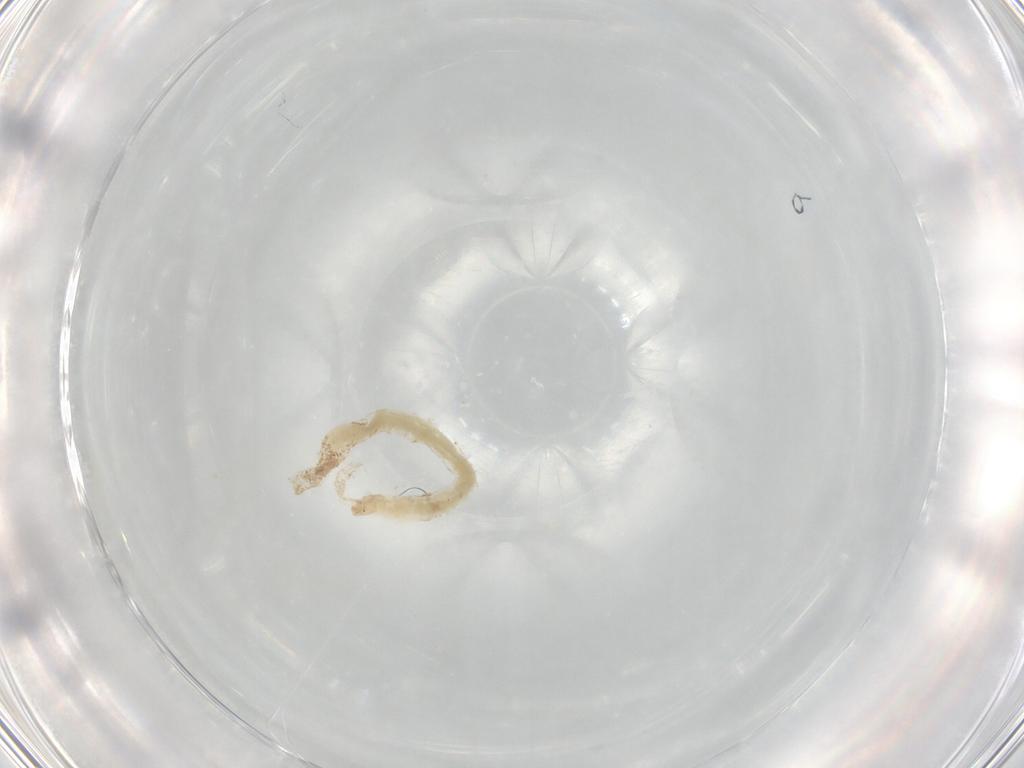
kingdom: Animalia
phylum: Arthropoda
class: Insecta
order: Diptera
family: Chironomidae
